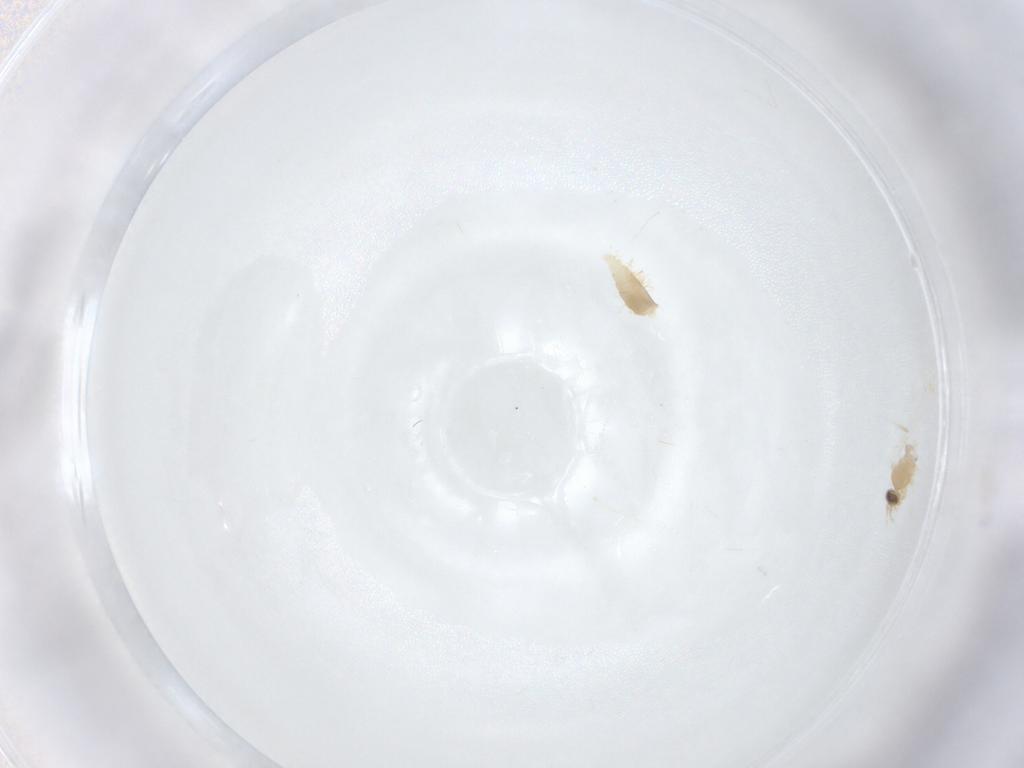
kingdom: Animalia
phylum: Arthropoda
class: Insecta
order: Diptera
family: Cecidomyiidae
